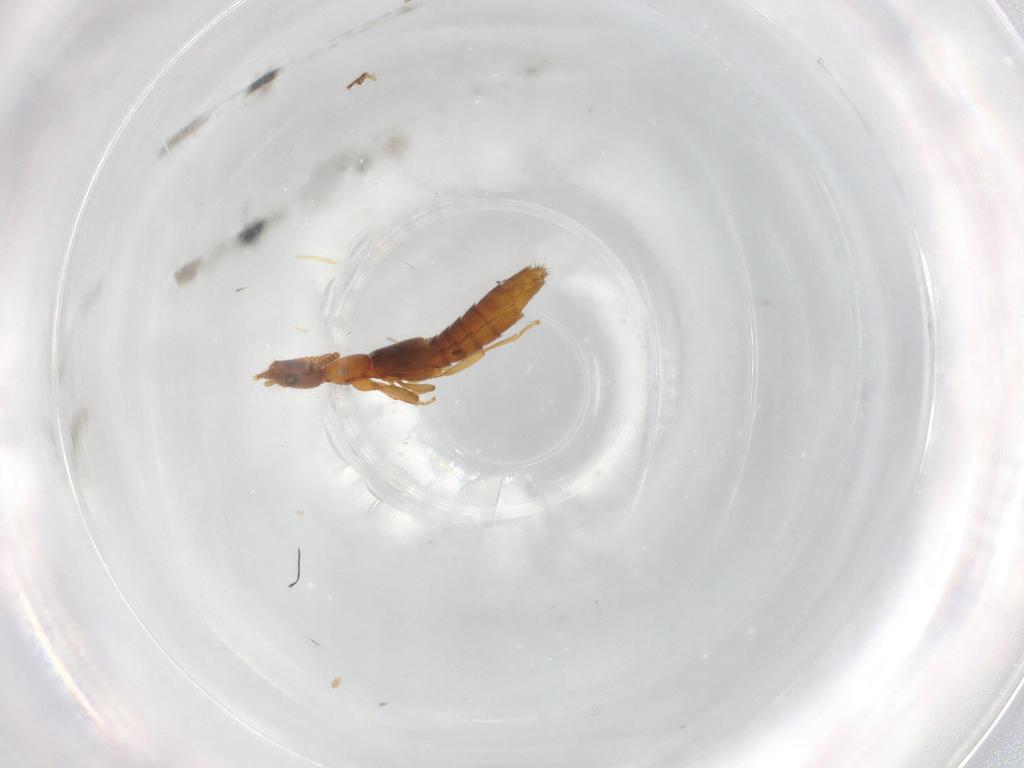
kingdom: Animalia
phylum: Arthropoda
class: Insecta
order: Coleoptera
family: Staphylinidae
